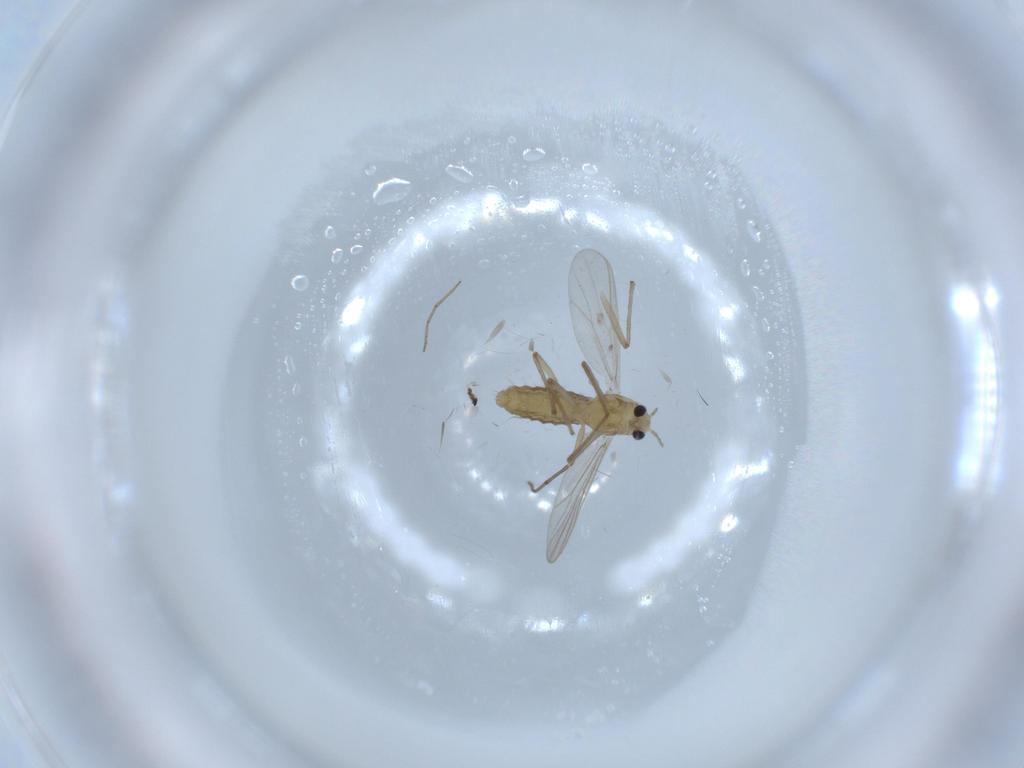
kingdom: Animalia
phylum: Arthropoda
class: Insecta
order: Diptera
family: Chironomidae
